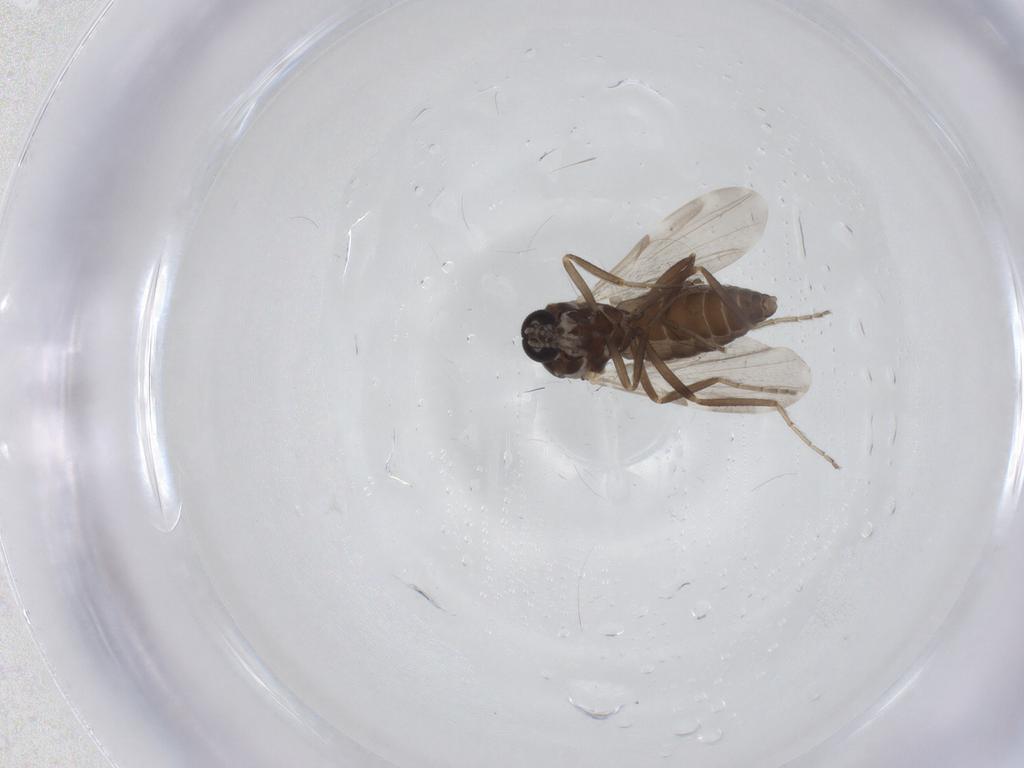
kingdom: Animalia
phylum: Arthropoda
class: Insecta
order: Diptera
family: Ceratopogonidae
